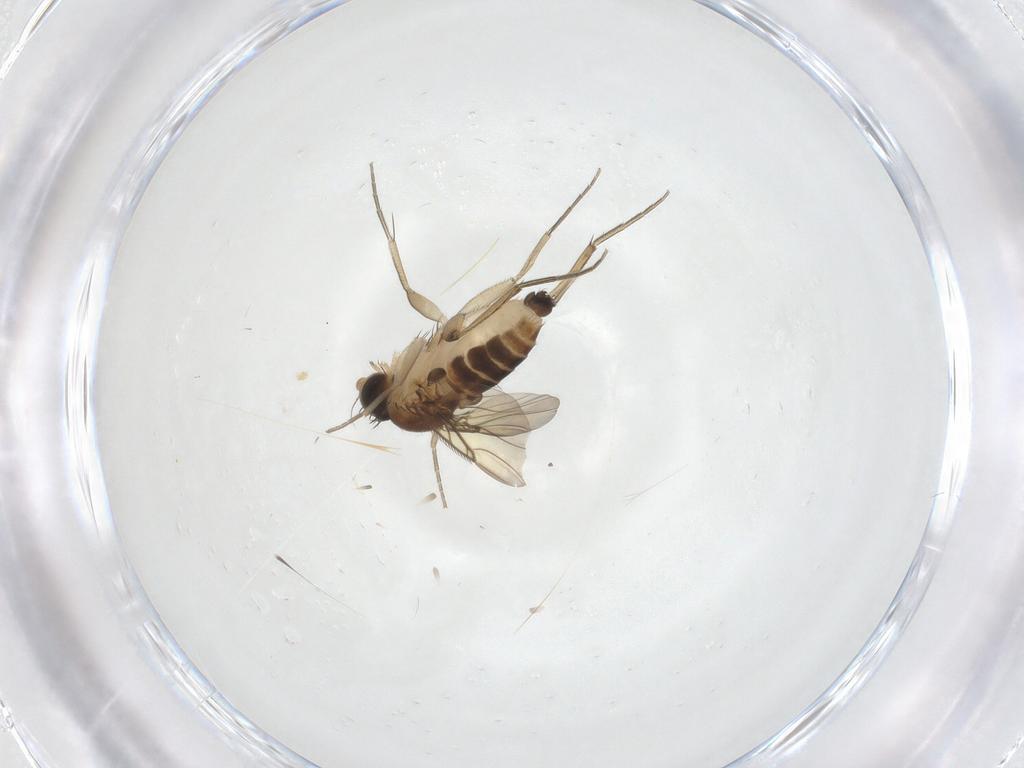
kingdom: Animalia
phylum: Arthropoda
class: Insecta
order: Diptera
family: Phoridae
